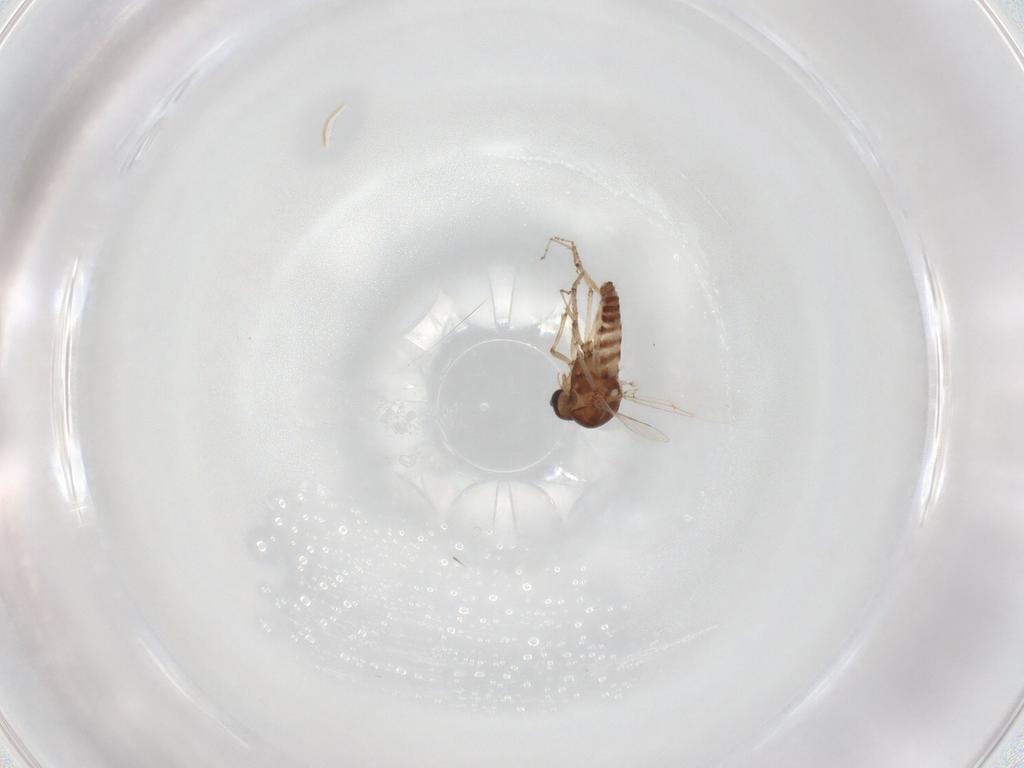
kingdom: Animalia
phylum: Arthropoda
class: Insecta
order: Diptera
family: Ceratopogonidae
